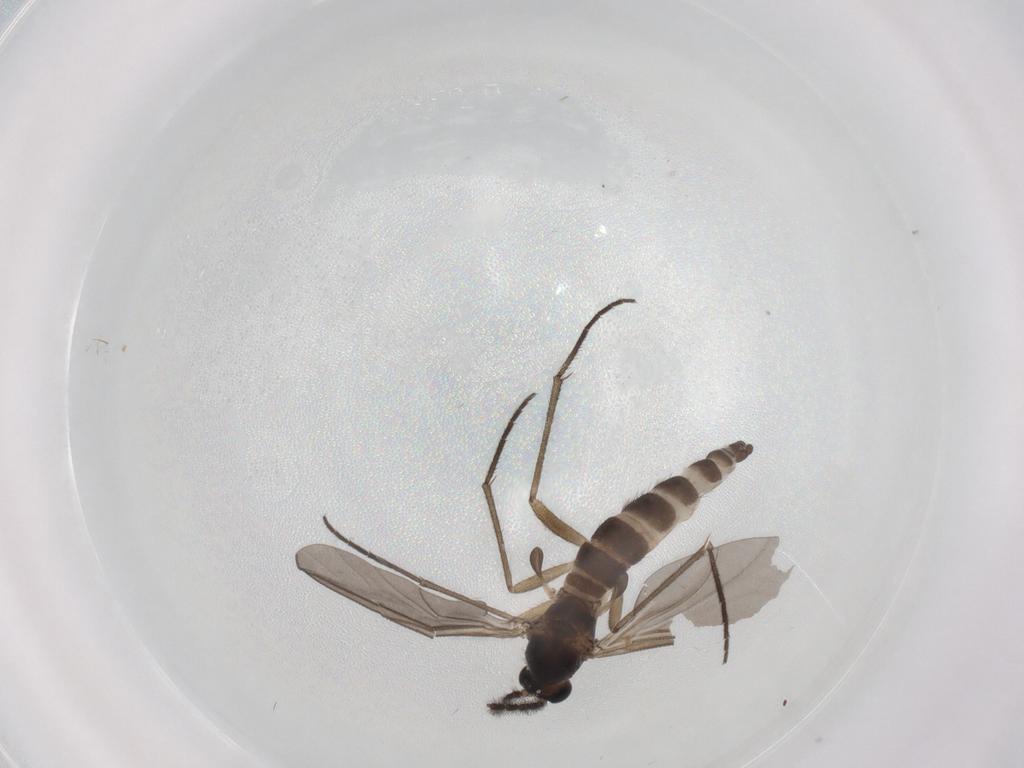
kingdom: Animalia
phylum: Arthropoda
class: Insecta
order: Diptera
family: Sciaridae
